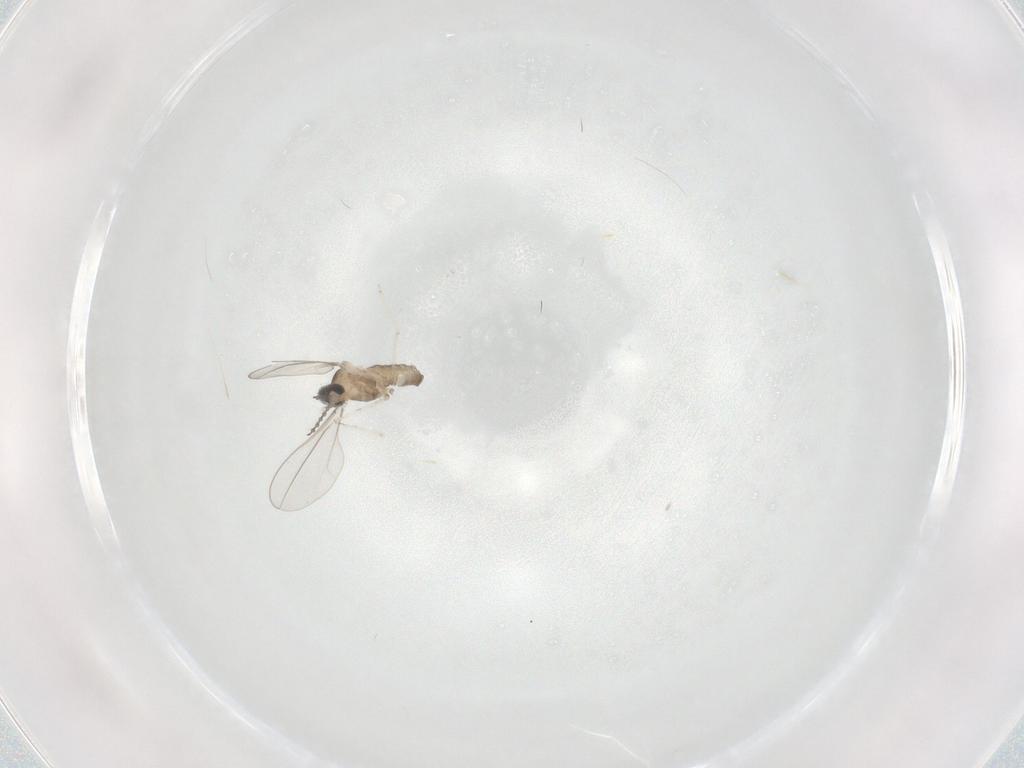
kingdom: Animalia
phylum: Arthropoda
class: Insecta
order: Diptera
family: Cecidomyiidae
